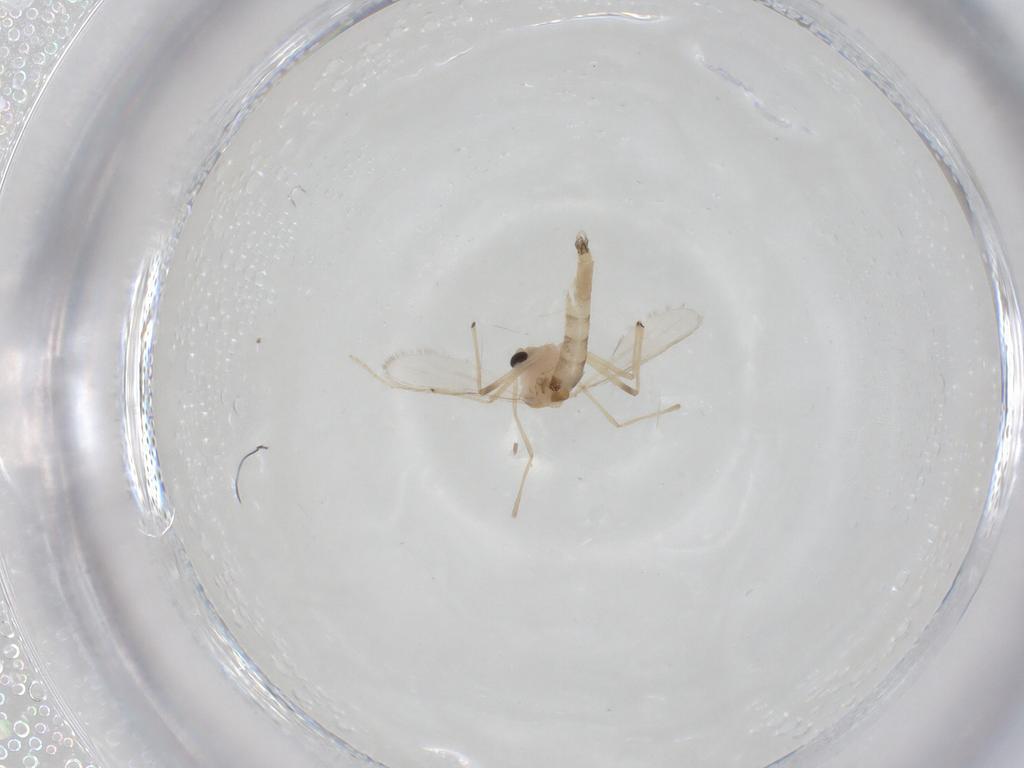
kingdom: Animalia
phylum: Arthropoda
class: Insecta
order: Diptera
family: Chironomidae
